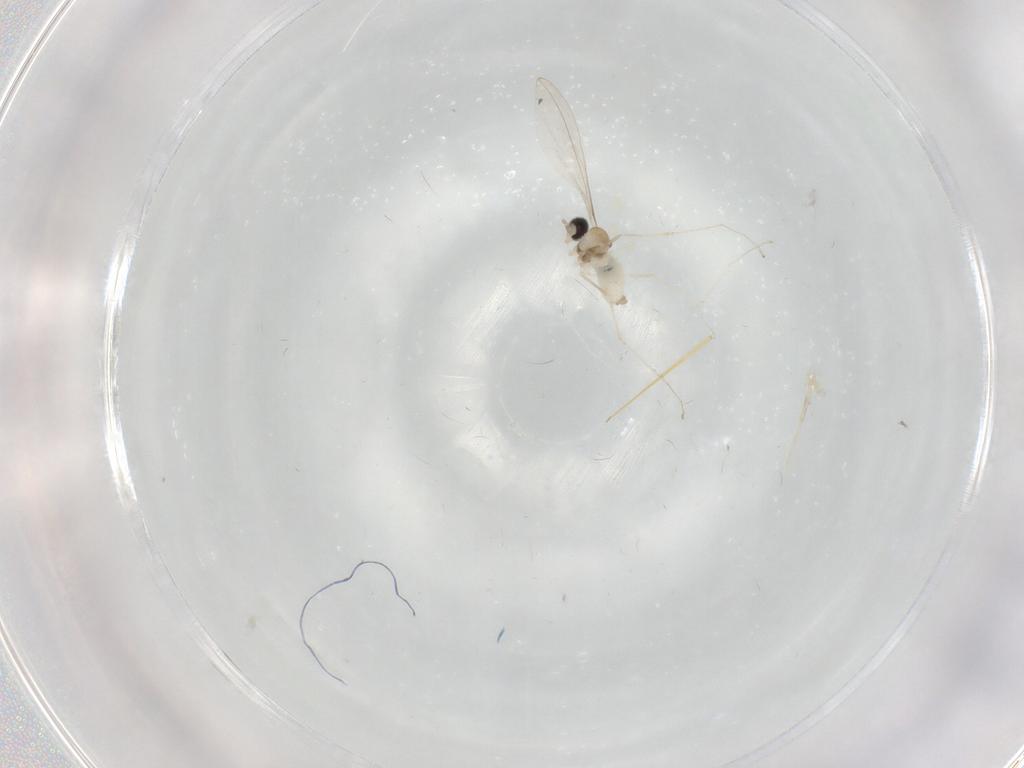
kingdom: Animalia
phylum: Arthropoda
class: Insecta
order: Diptera
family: Cecidomyiidae
